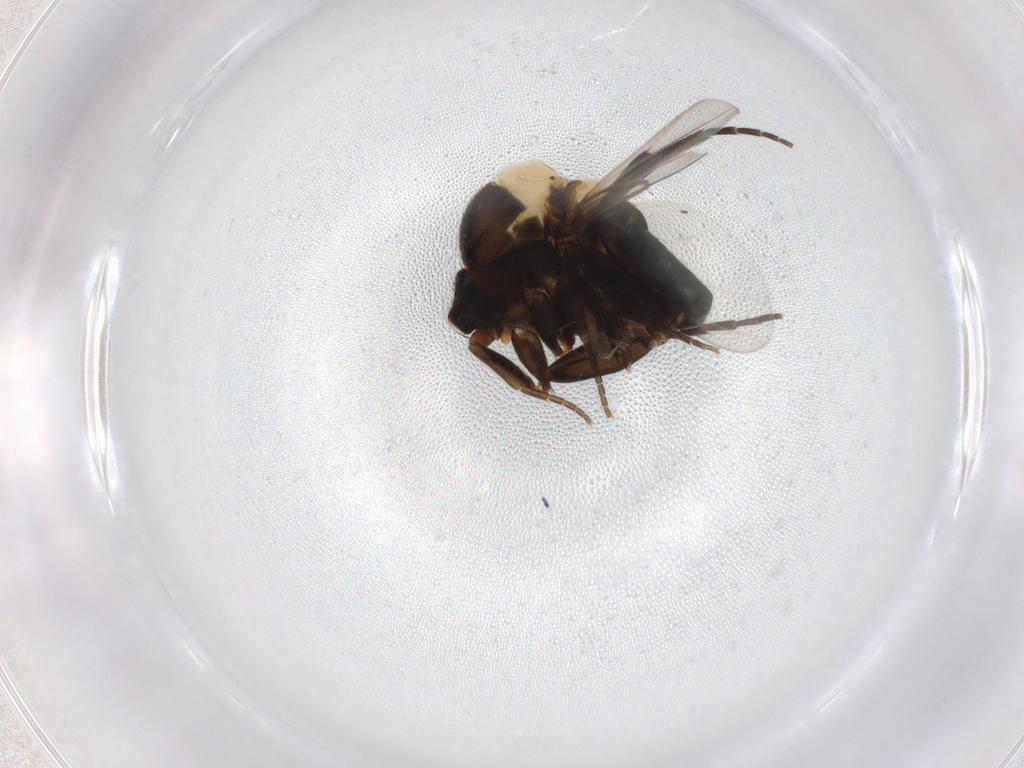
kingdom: Animalia
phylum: Arthropoda
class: Insecta
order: Diptera
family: Phoridae
